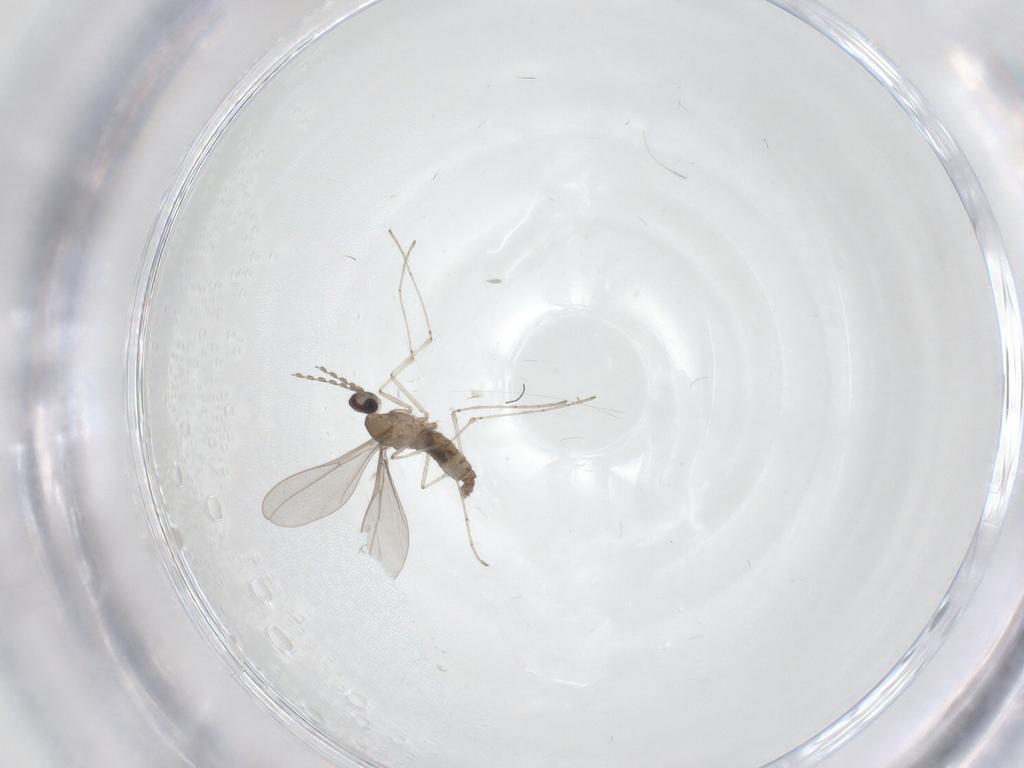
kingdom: Animalia
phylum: Arthropoda
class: Insecta
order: Diptera
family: Cecidomyiidae
